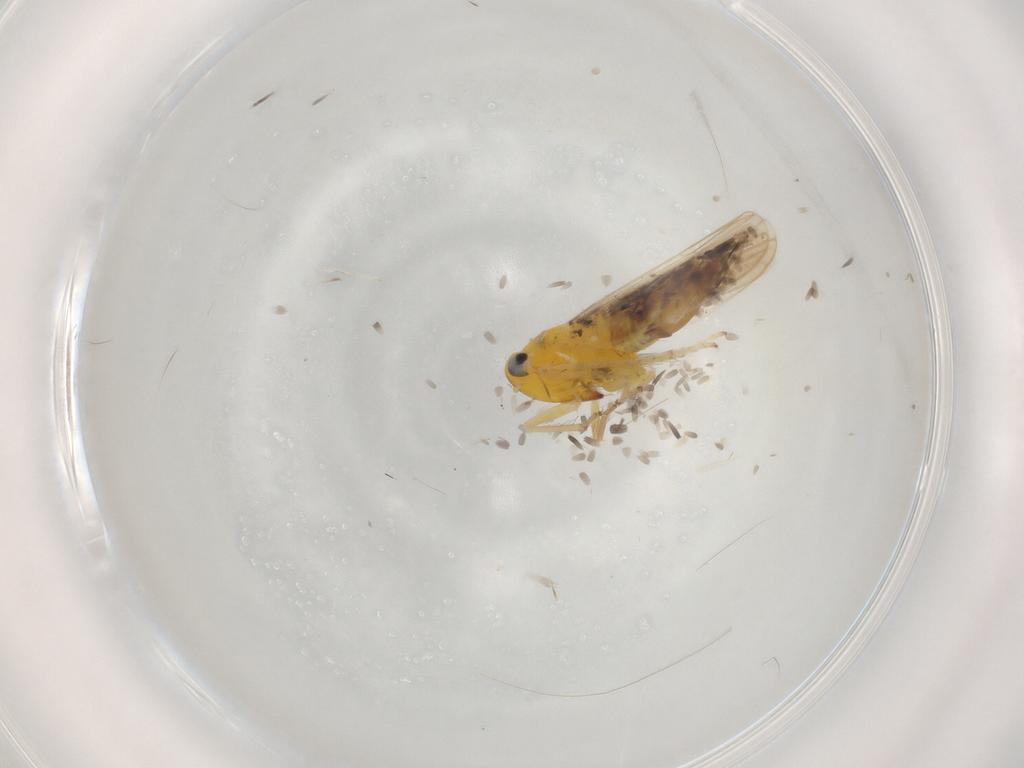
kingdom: Animalia
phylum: Arthropoda
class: Insecta
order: Hemiptera
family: Cicadellidae
